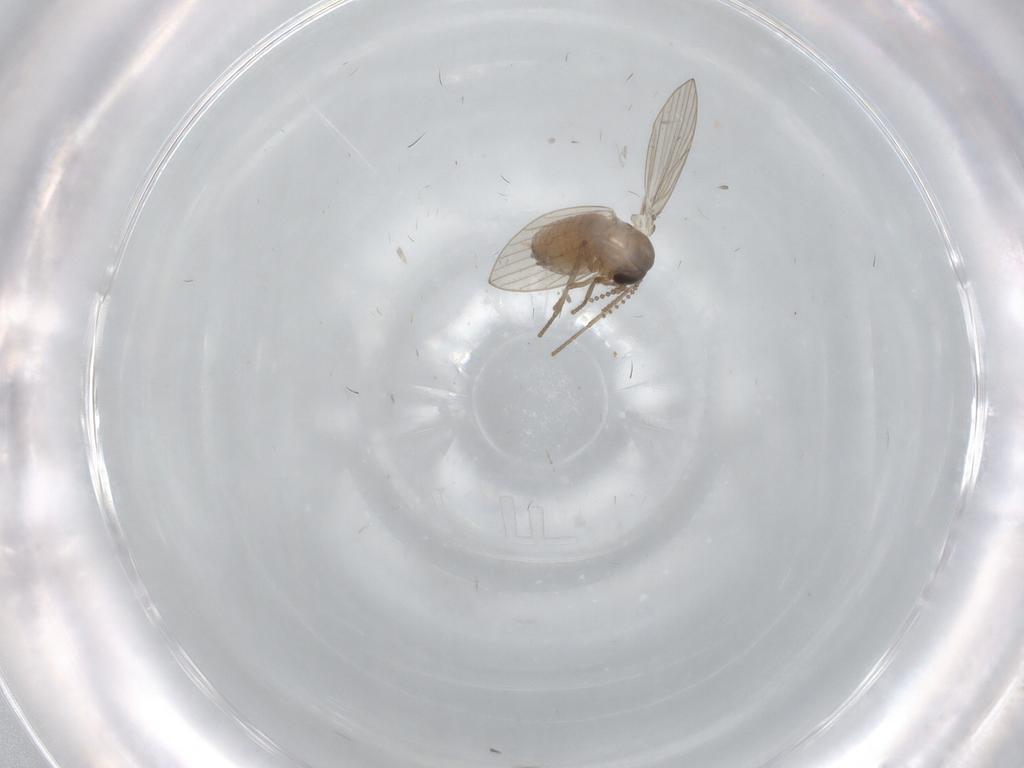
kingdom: Animalia
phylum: Arthropoda
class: Insecta
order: Diptera
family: Psychodidae
